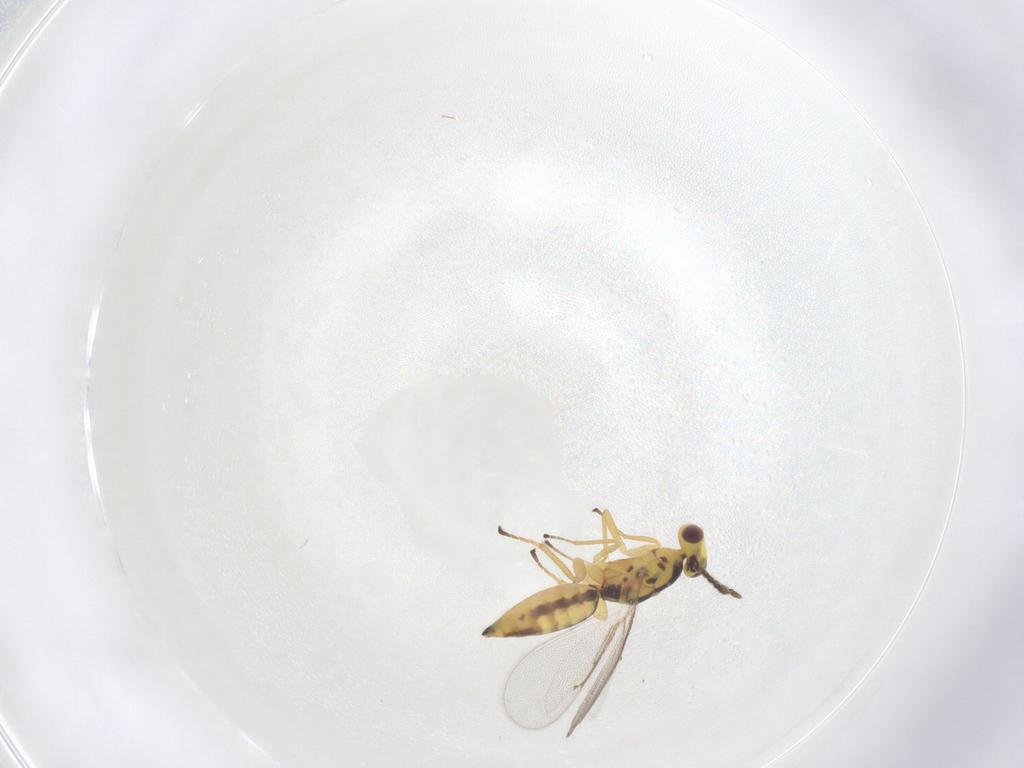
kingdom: Animalia
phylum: Arthropoda
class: Insecta
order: Hymenoptera
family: Eulophidae
